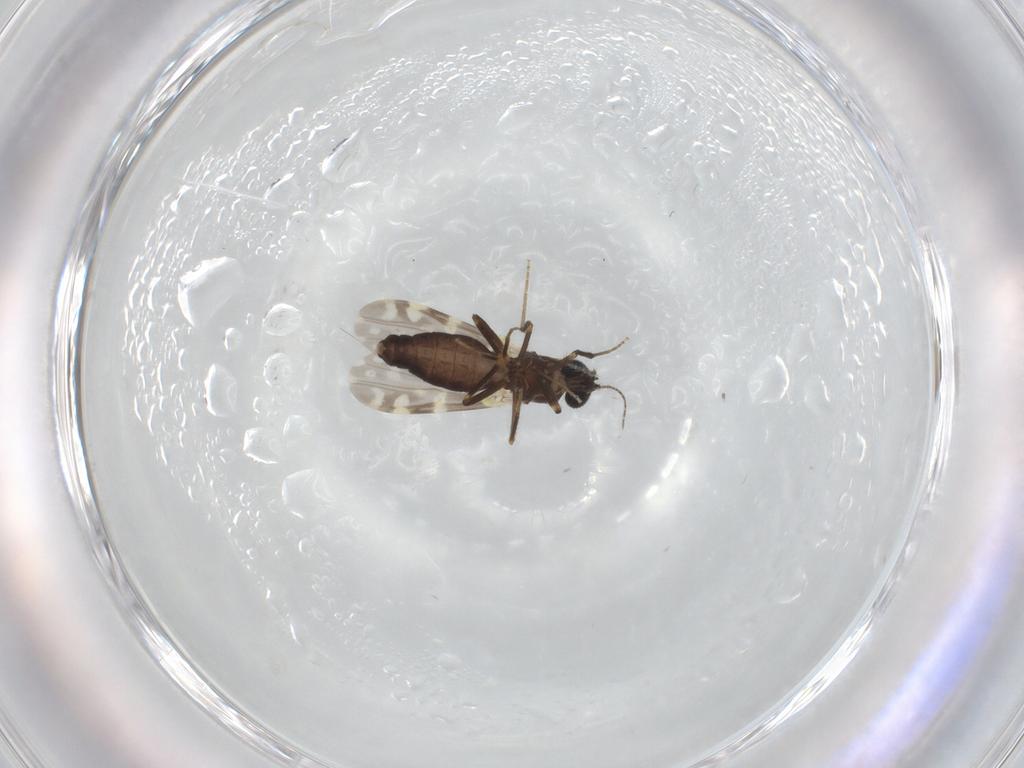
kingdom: Animalia
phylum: Arthropoda
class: Insecta
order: Diptera
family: Ceratopogonidae
